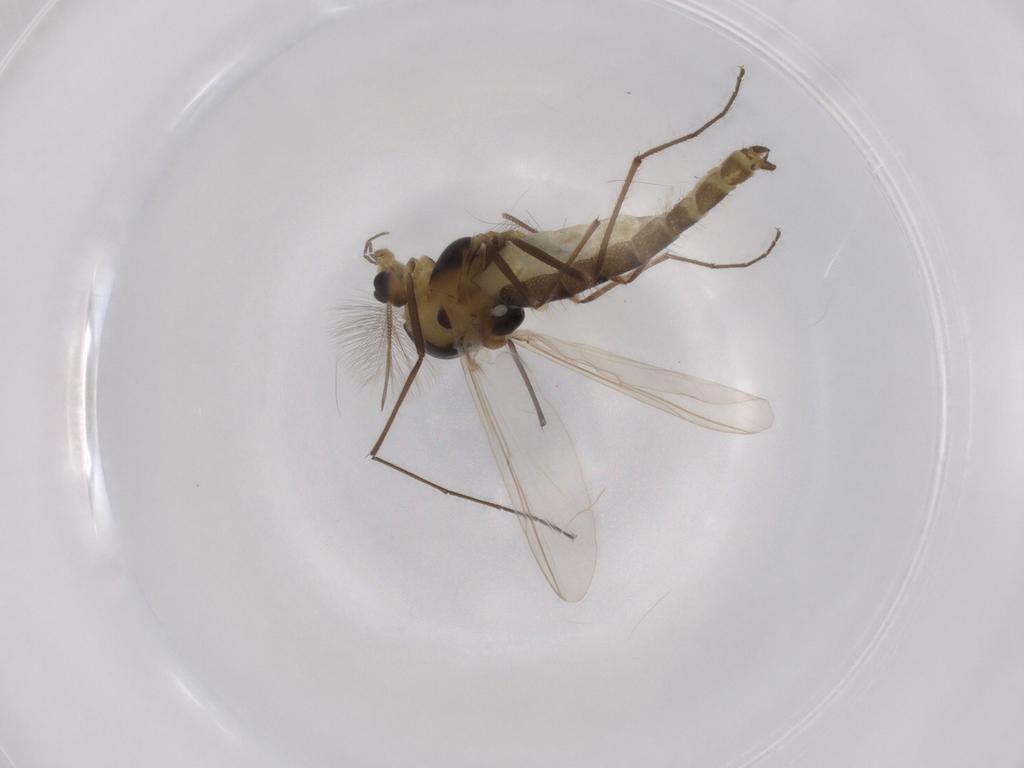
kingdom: Animalia
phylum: Arthropoda
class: Insecta
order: Diptera
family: Chironomidae
